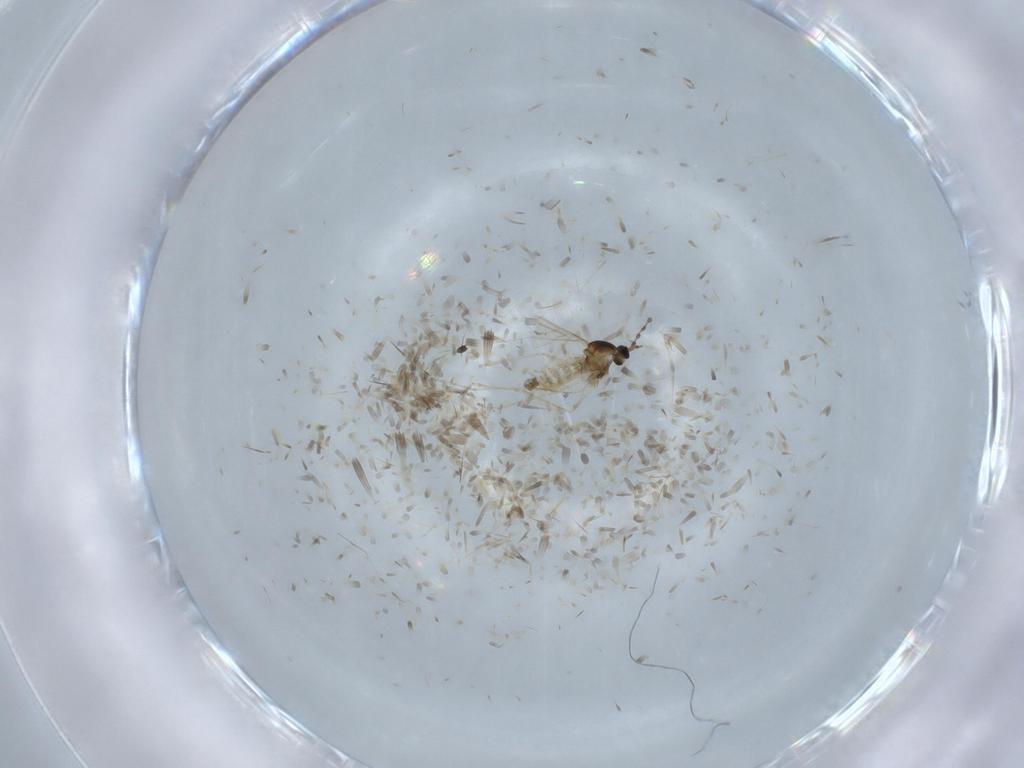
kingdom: Animalia
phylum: Arthropoda
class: Insecta
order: Diptera
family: Cecidomyiidae
